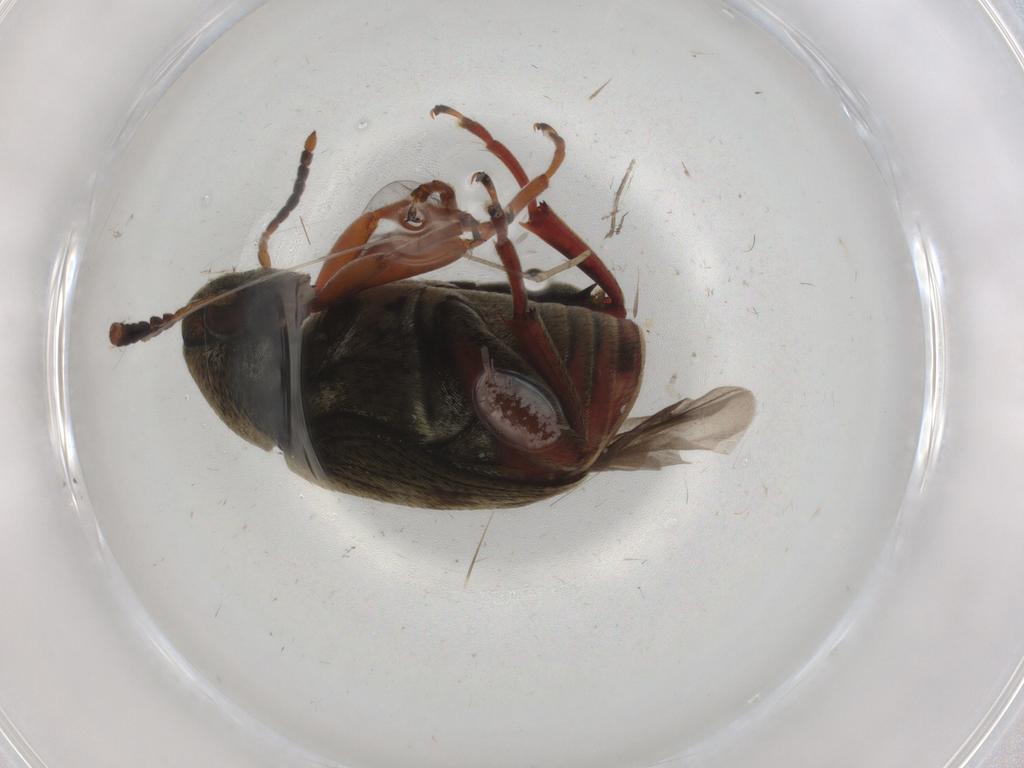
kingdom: Animalia
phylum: Arthropoda
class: Insecta
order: Coleoptera
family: Chrysomelidae
